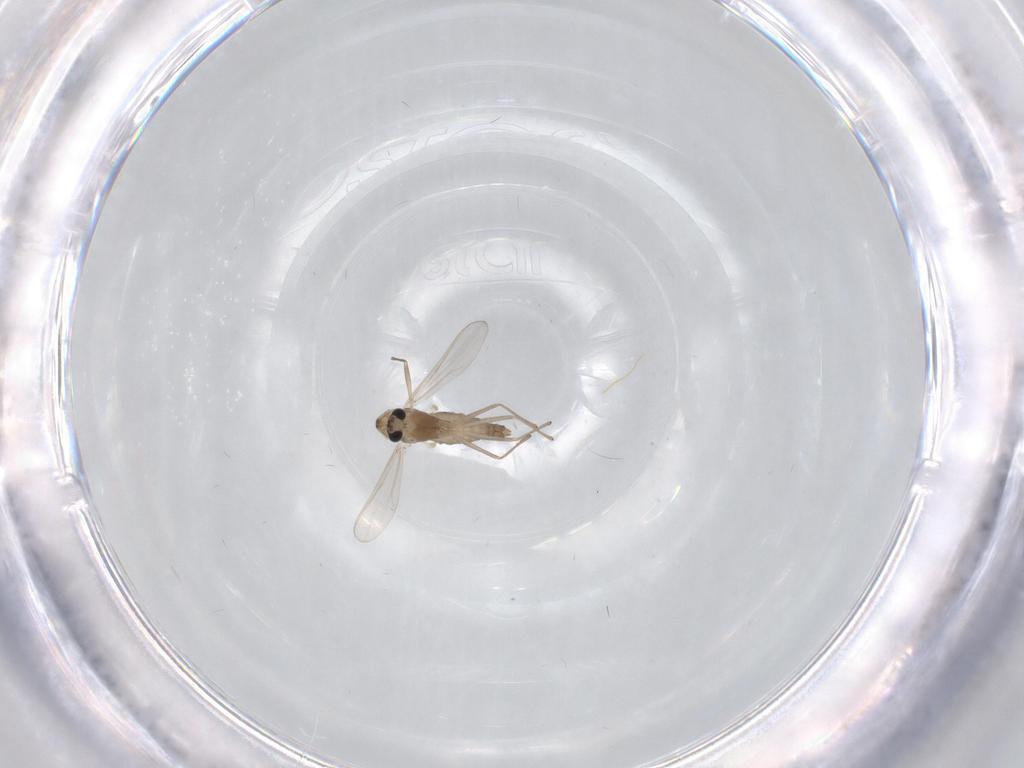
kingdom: Animalia
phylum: Arthropoda
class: Insecta
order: Diptera
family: Chironomidae
